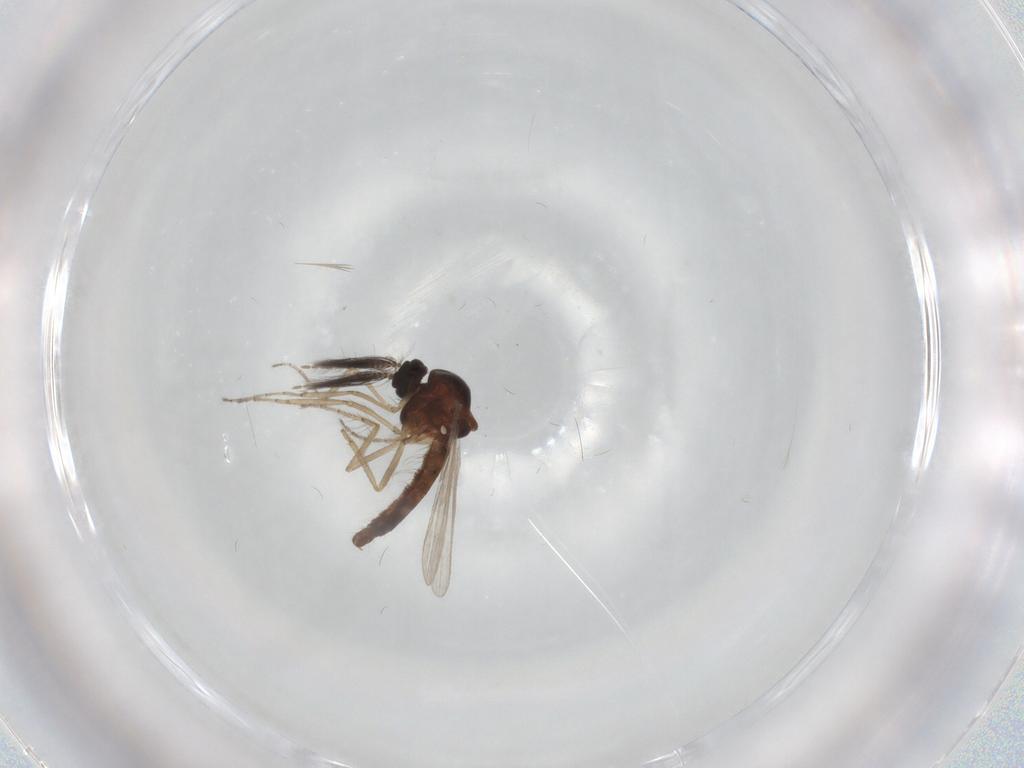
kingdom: Animalia
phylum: Arthropoda
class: Insecta
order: Diptera
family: Ceratopogonidae
